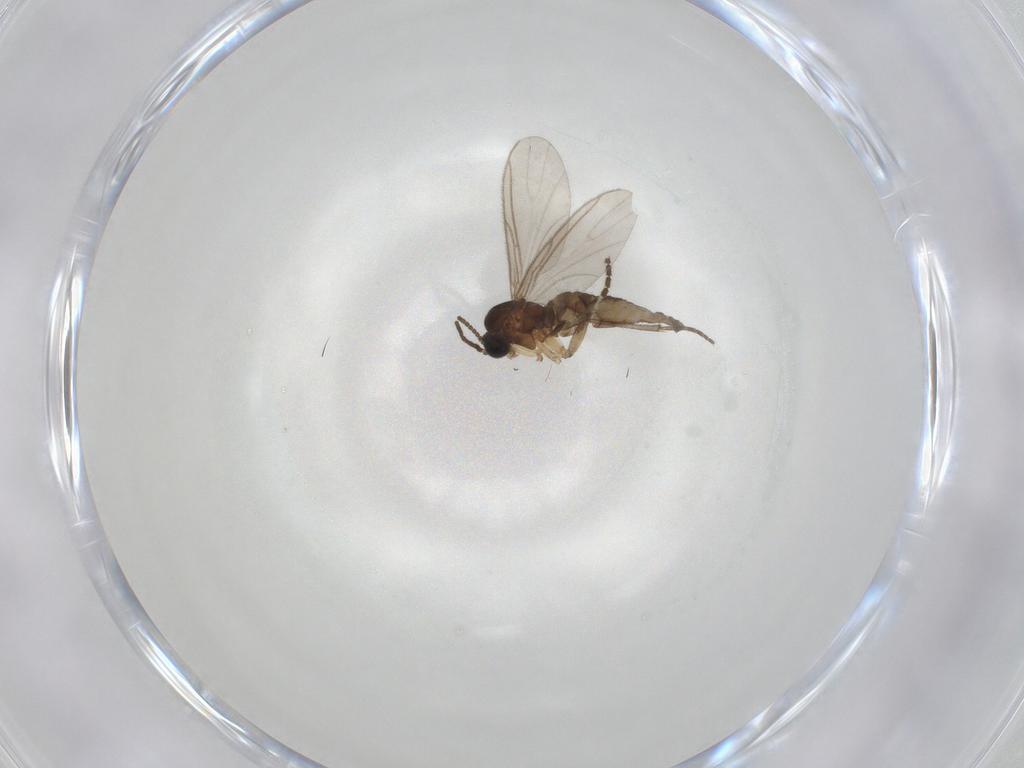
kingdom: Animalia
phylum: Arthropoda
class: Insecta
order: Diptera
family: Sciaridae
